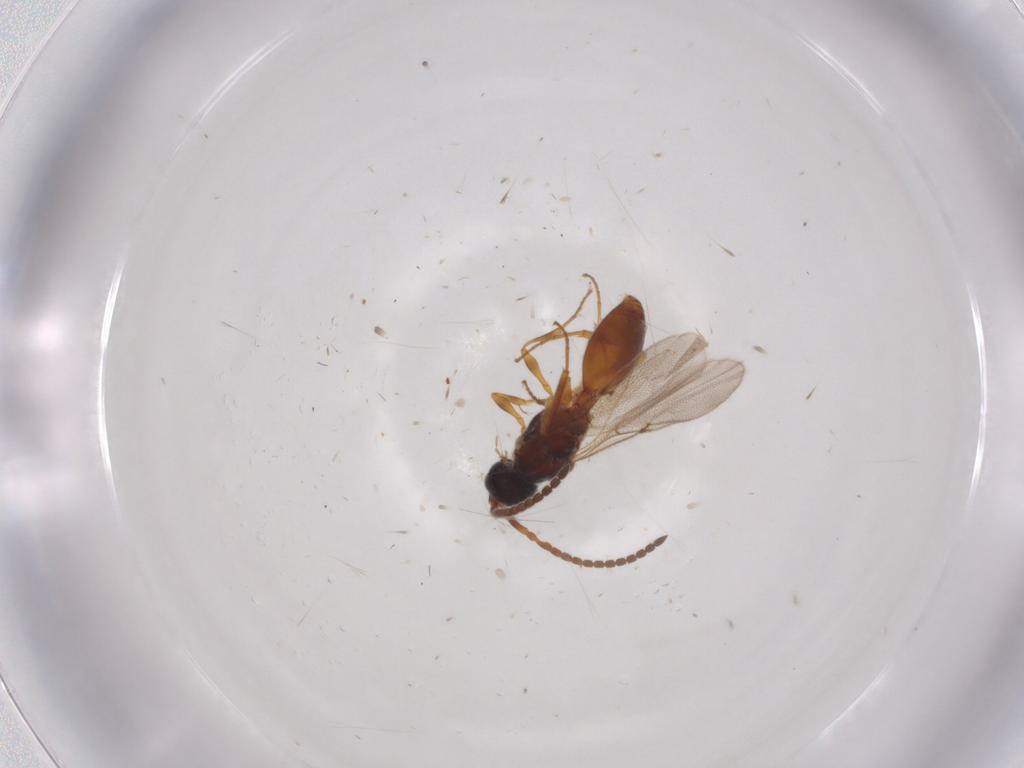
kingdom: Animalia
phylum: Arthropoda
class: Insecta
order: Hymenoptera
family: Diapriidae
